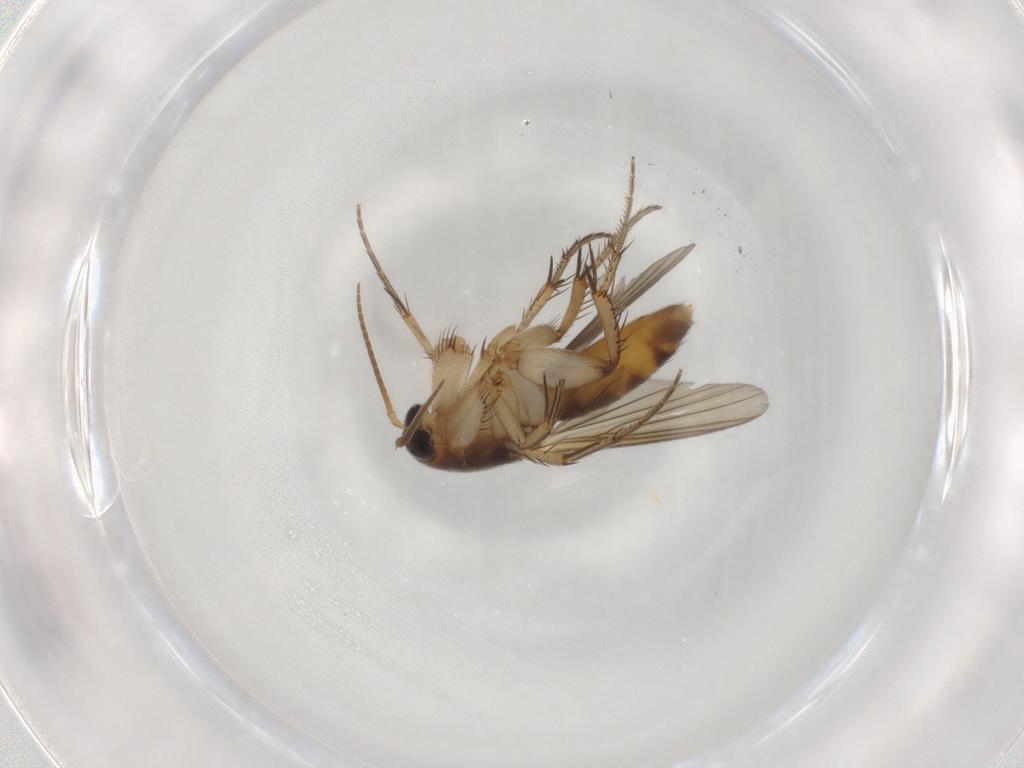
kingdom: Animalia
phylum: Arthropoda
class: Insecta
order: Diptera
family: Mycetophilidae
